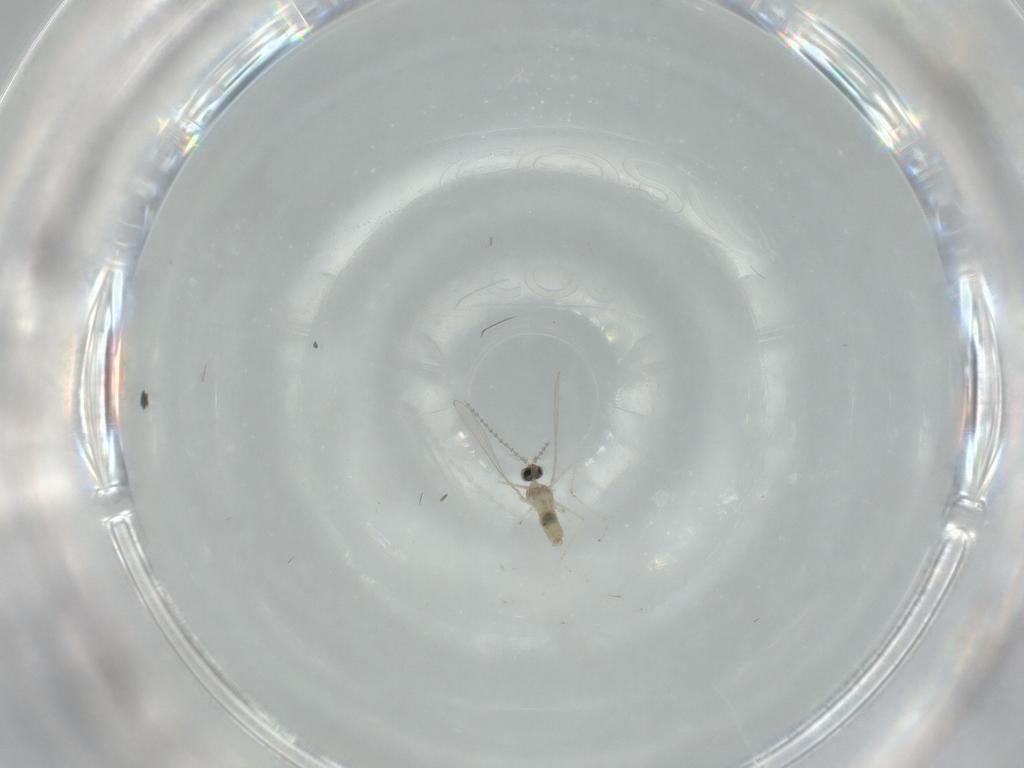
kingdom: Animalia
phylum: Arthropoda
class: Insecta
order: Diptera
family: Cecidomyiidae
